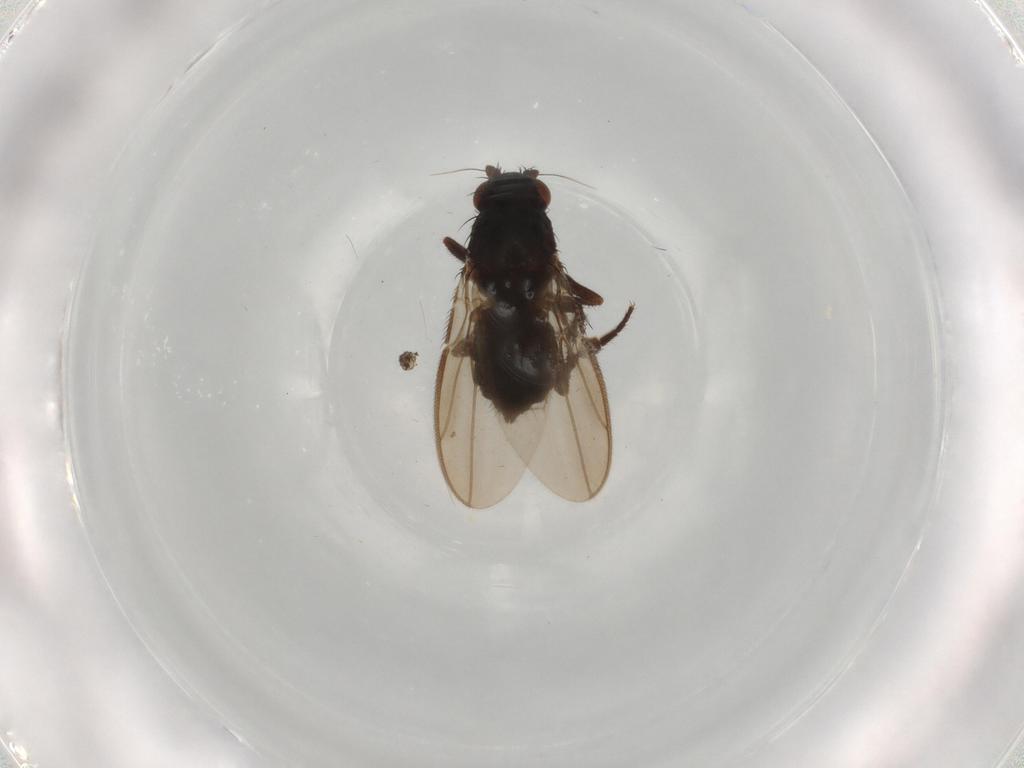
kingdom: Animalia
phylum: Arthropoda
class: Insecta
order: Diptera
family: Sphaeroceridae
